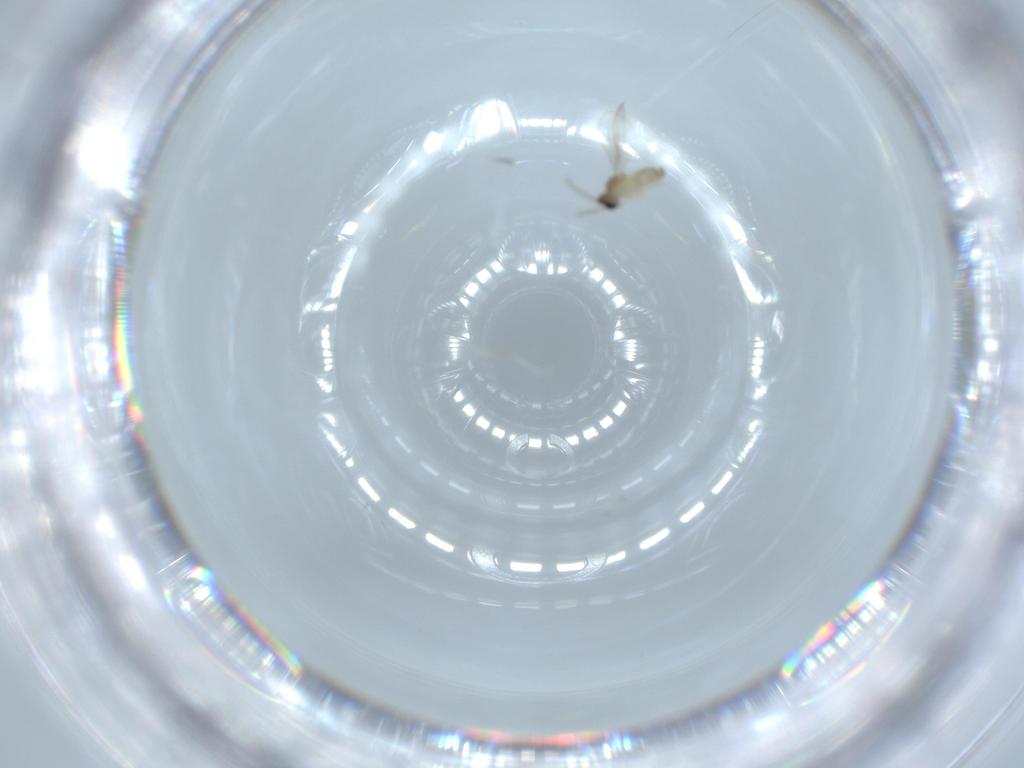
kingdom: Animalia
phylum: Arthropoda
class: Insecta
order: Diptera
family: Cecidomyiidae
